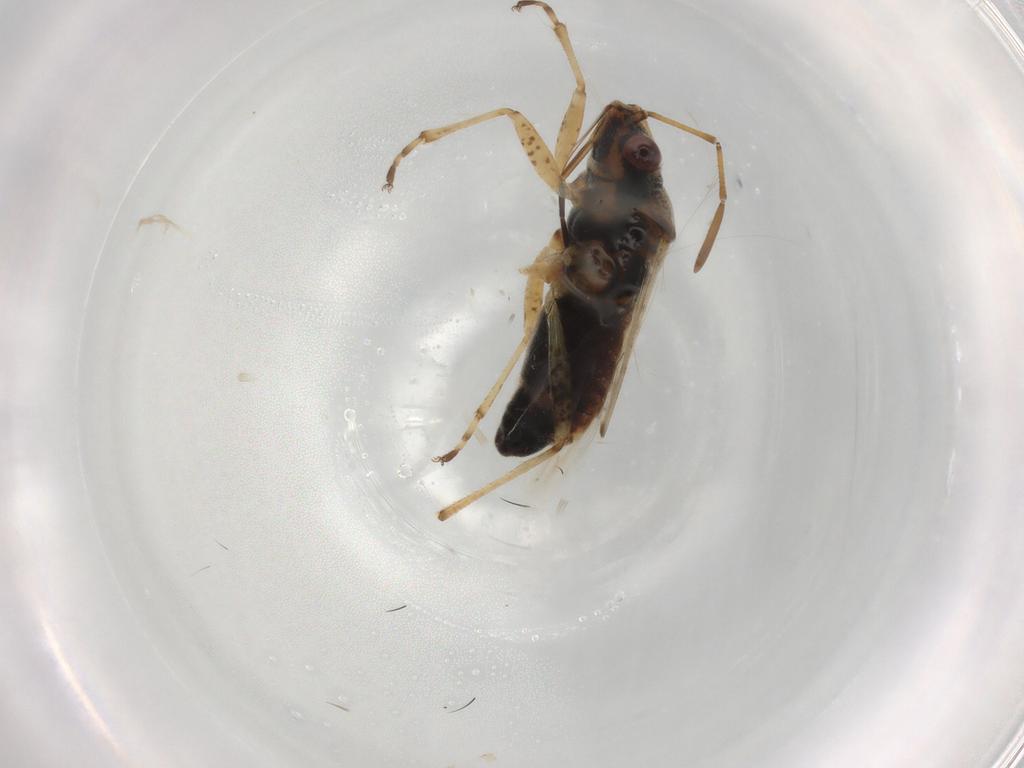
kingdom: Animalia
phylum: Arthropoda
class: Insecta
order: Hemiptera
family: Lygaeidae
